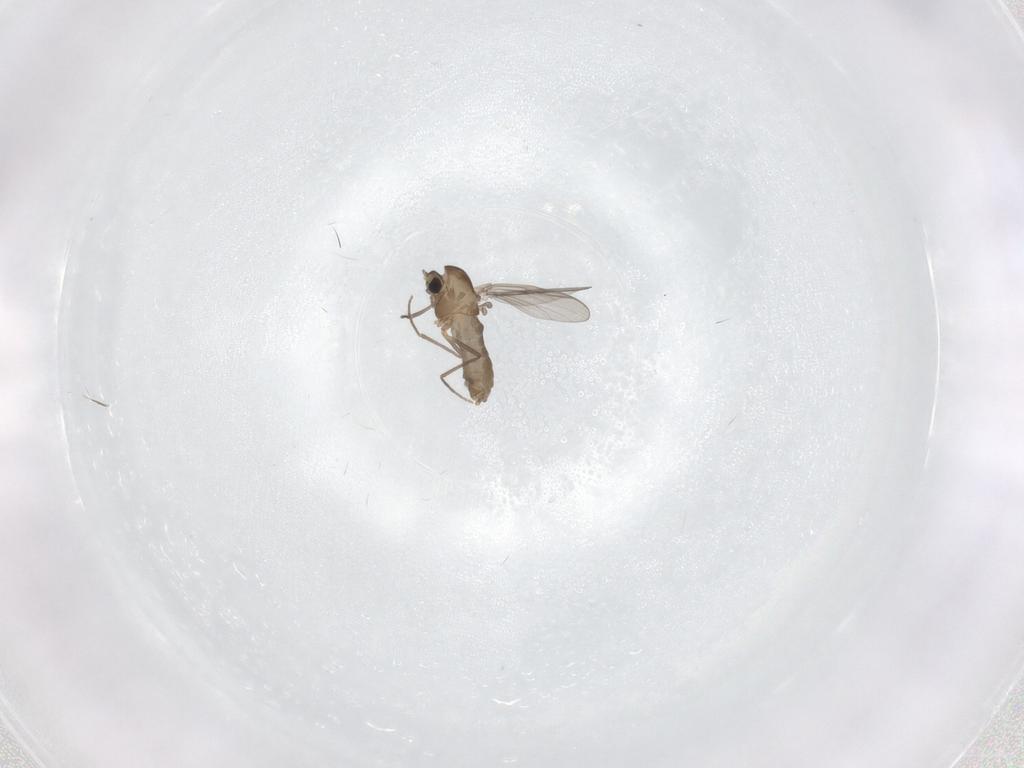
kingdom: Animalia
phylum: Arthropoda
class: Insecta
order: Diptera
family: Chironomidae
